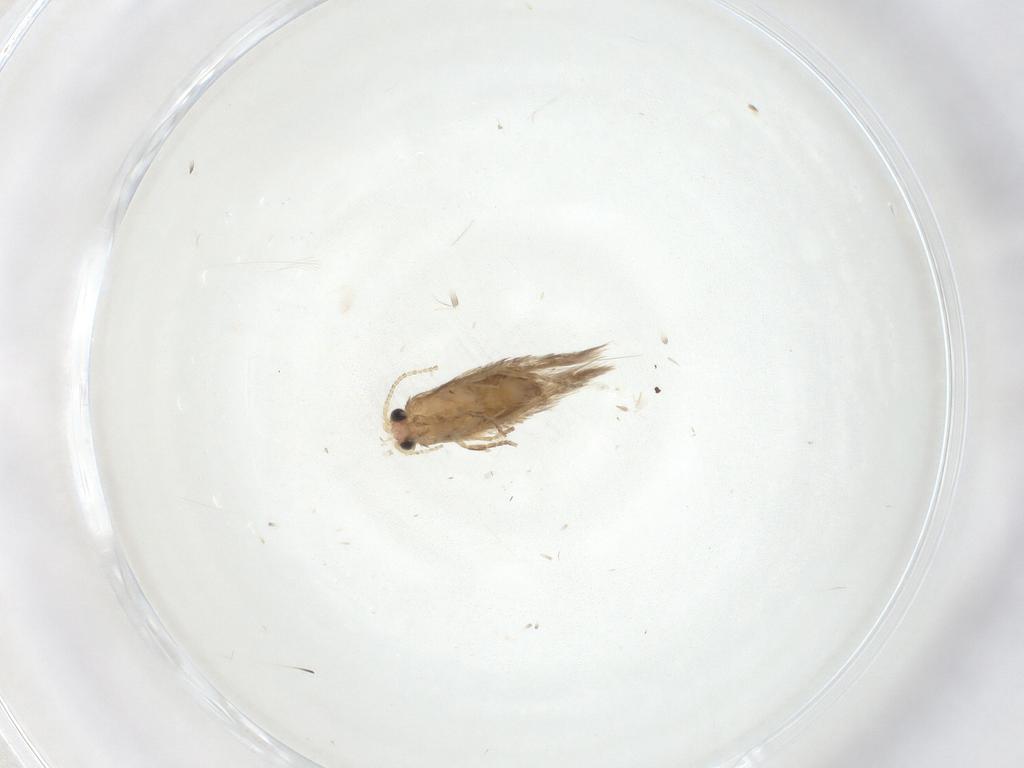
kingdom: Animalia
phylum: Arthropoda
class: Insecta
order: Lepidoptera
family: Nepticulidae
